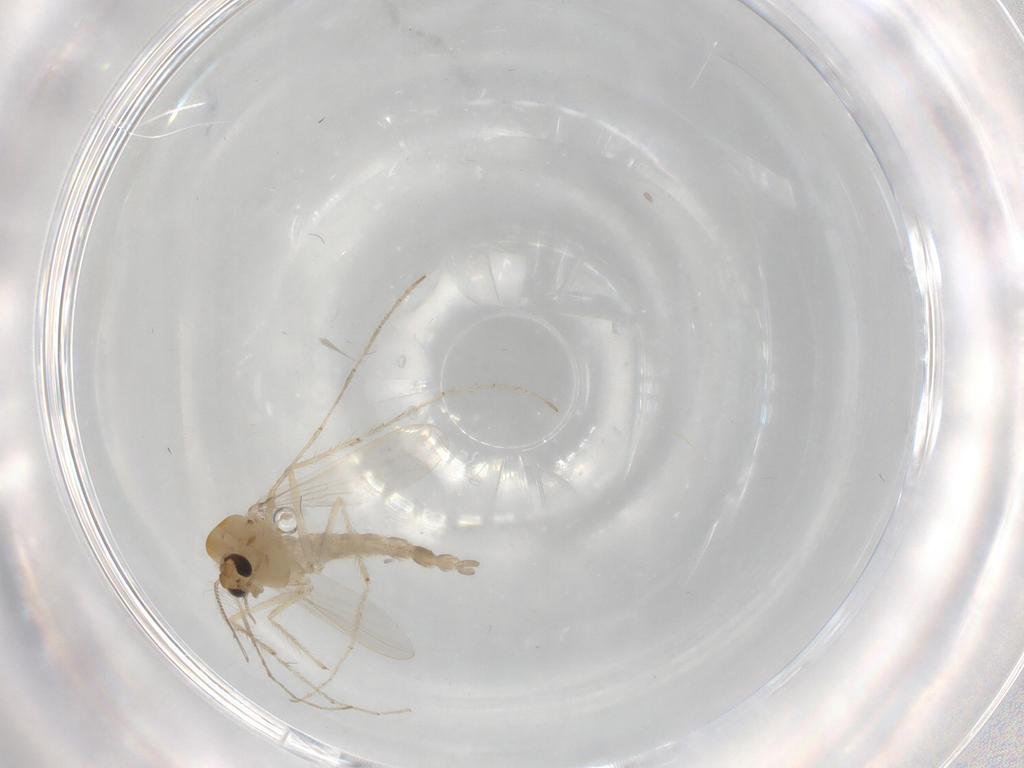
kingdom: Animalia
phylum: Arthropoda
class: Insecta
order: Diptera
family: Chironomidae
